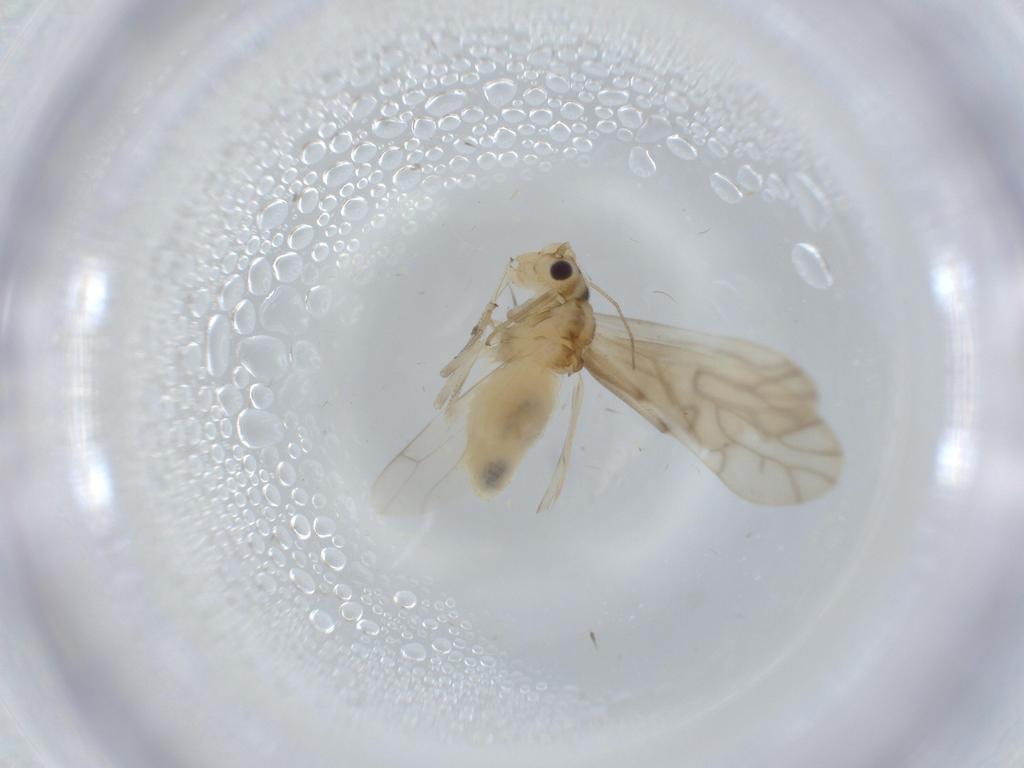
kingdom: Animalia
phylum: Arthropoda
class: Insecta
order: Psocodea
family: Caeciliusidae
